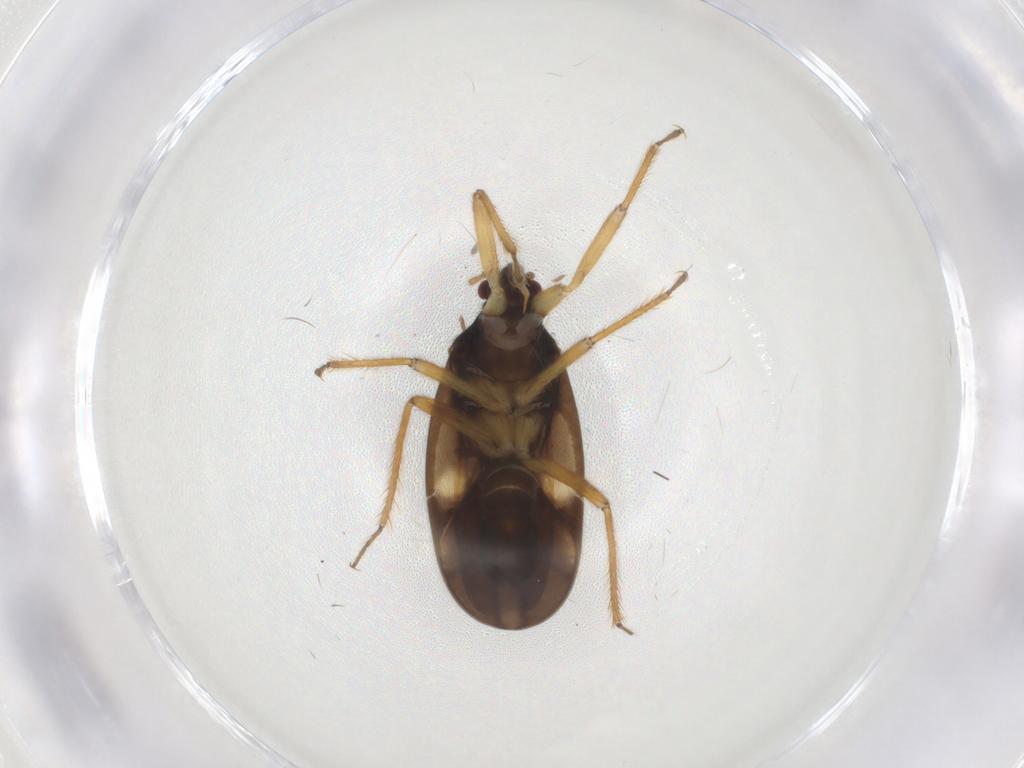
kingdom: Animalia
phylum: Arthropoda
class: Insecta
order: Hemiptera
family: Ceratocombidae
